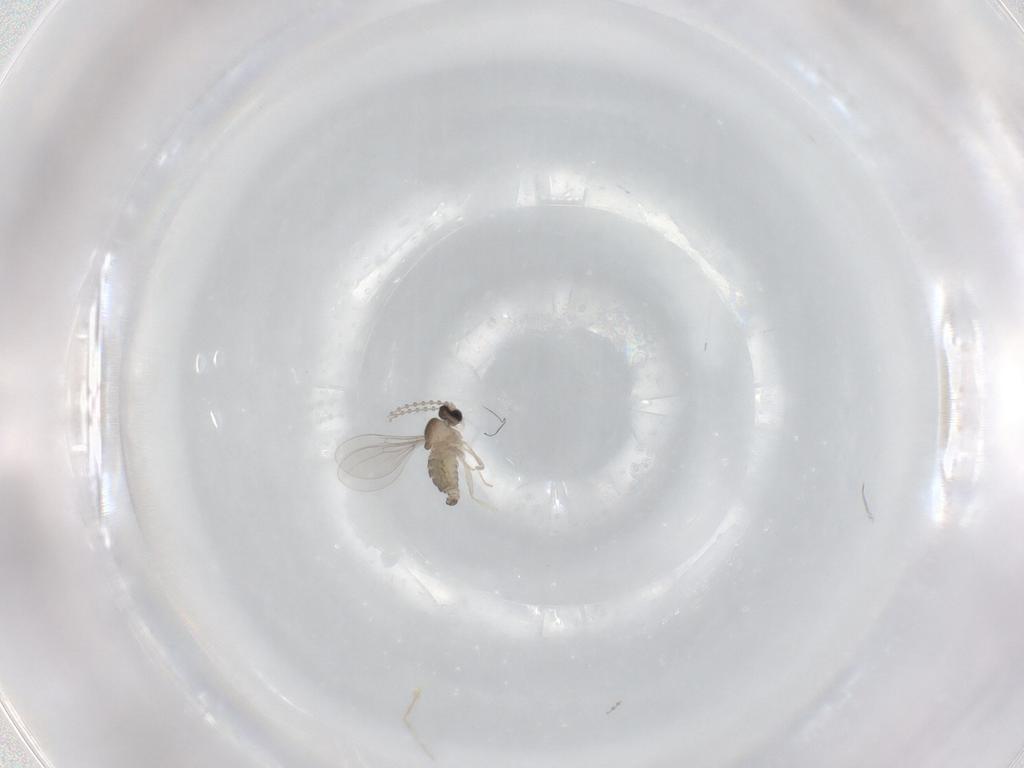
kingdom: Animalia
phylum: Arthropoda
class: Insecta
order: Diptera
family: Cecidomyiidae
